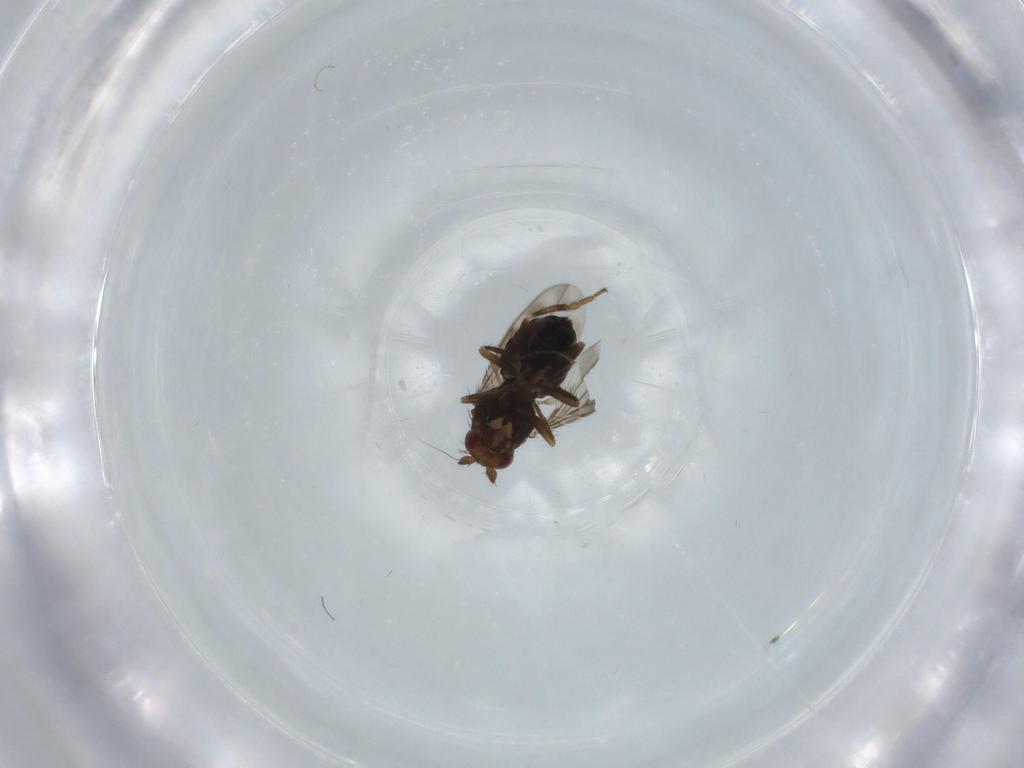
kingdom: Animalia
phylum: Arthropoda
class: Insecta
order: Diptera
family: Sphaeroceridae
